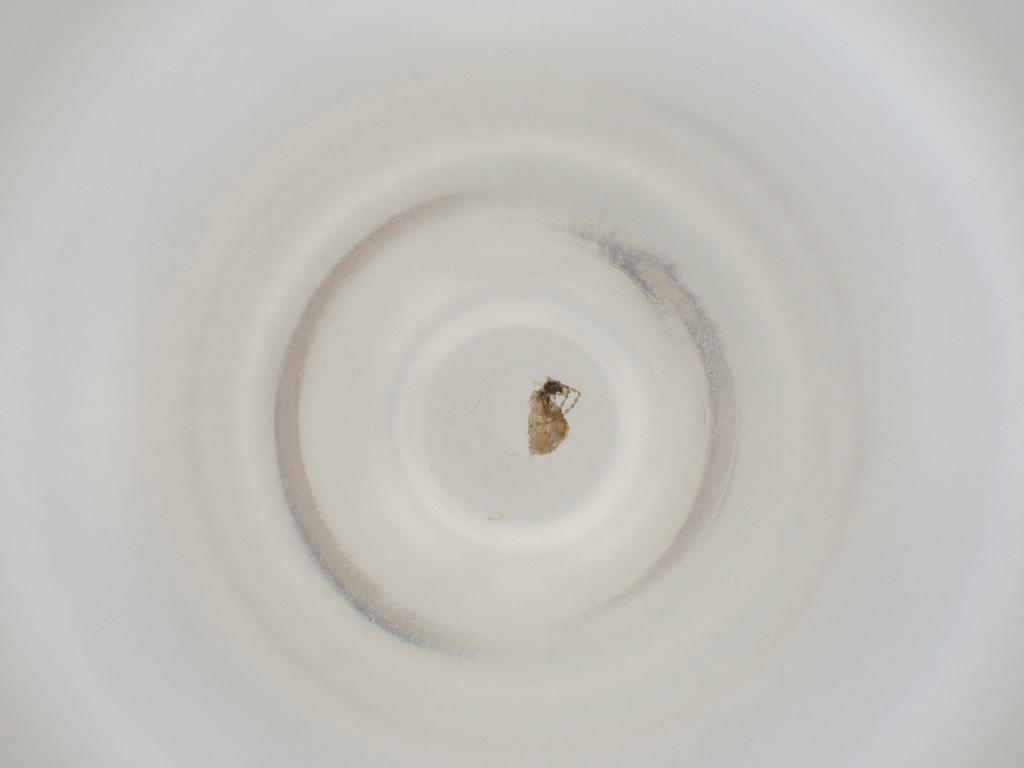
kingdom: Animalia
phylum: Arthropoda
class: Insecta
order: Diptera
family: Cecidomyiidae
